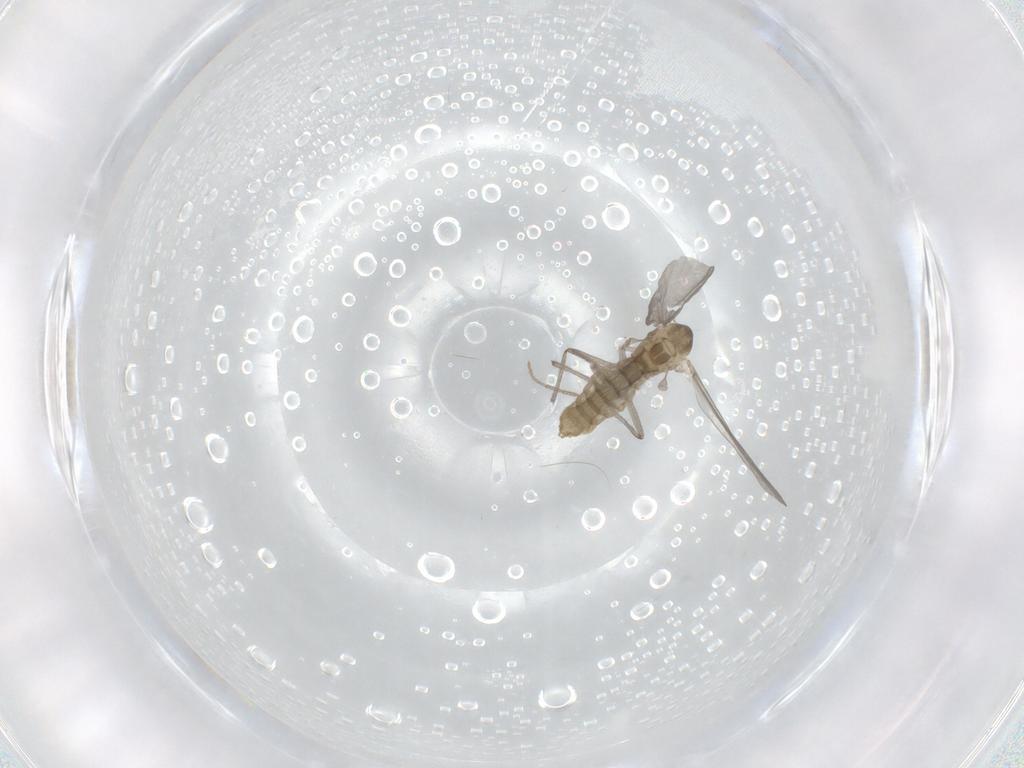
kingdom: Animalia
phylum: Arthropoda
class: Insecta
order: Diptera
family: Chironomidae
